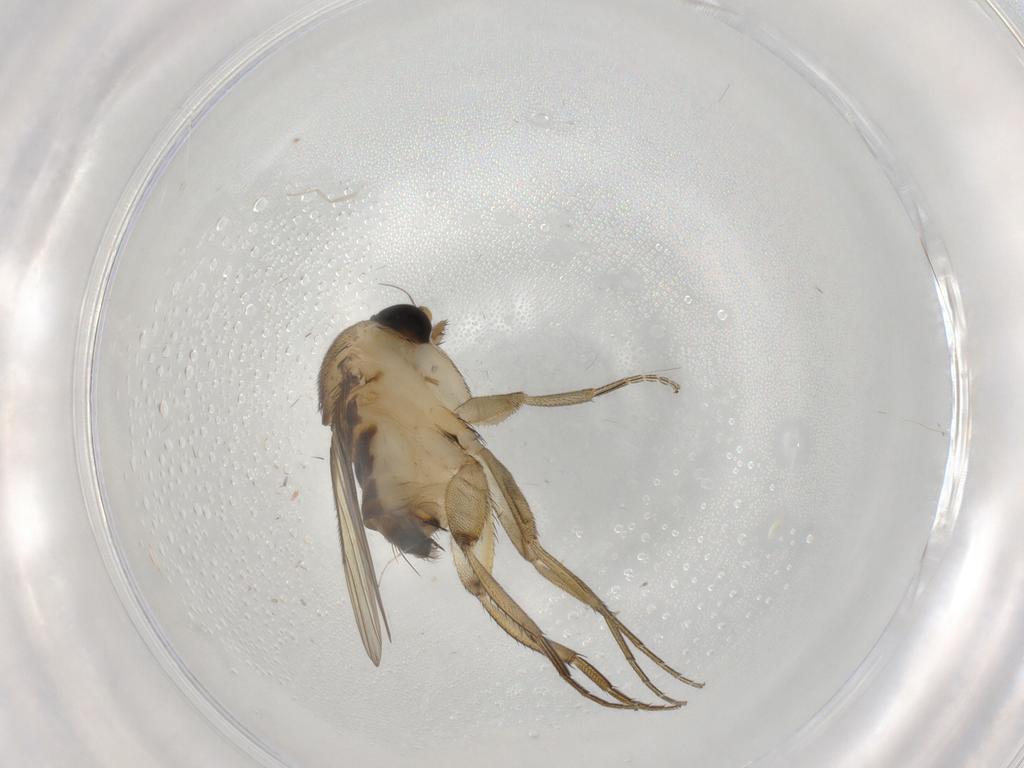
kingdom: Animalia
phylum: Arthropoda
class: Insecta
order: Diptera
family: Phoridae
